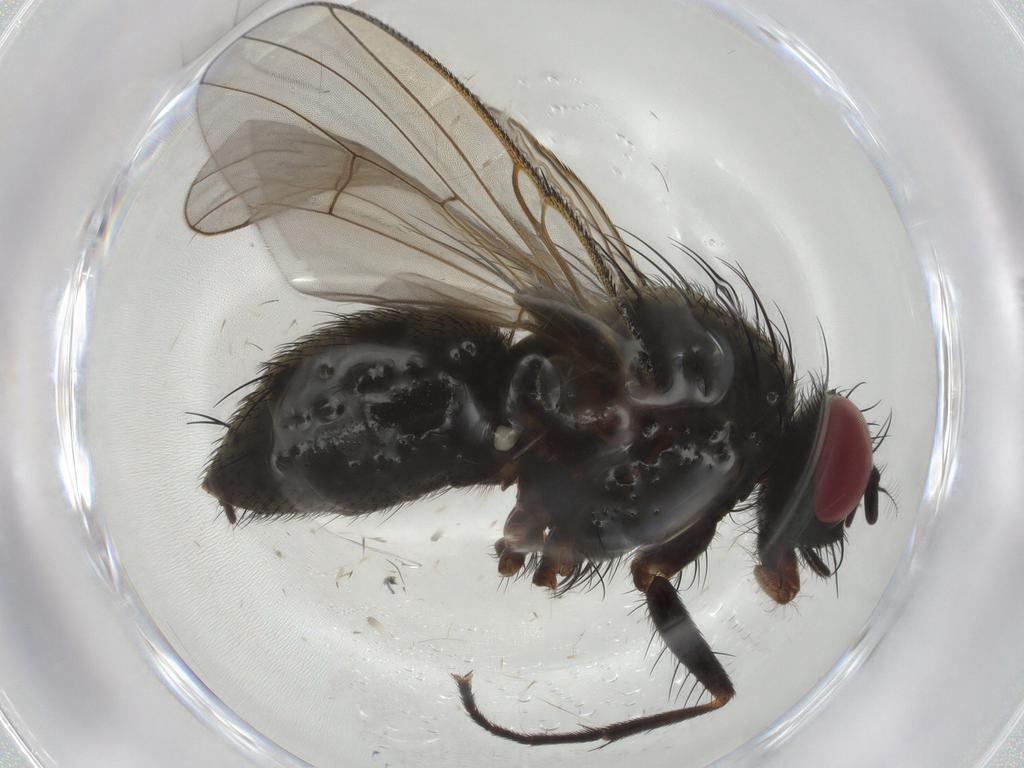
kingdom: Animalia
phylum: Arthropoda
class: Insecta
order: Diptera
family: Muscidae
